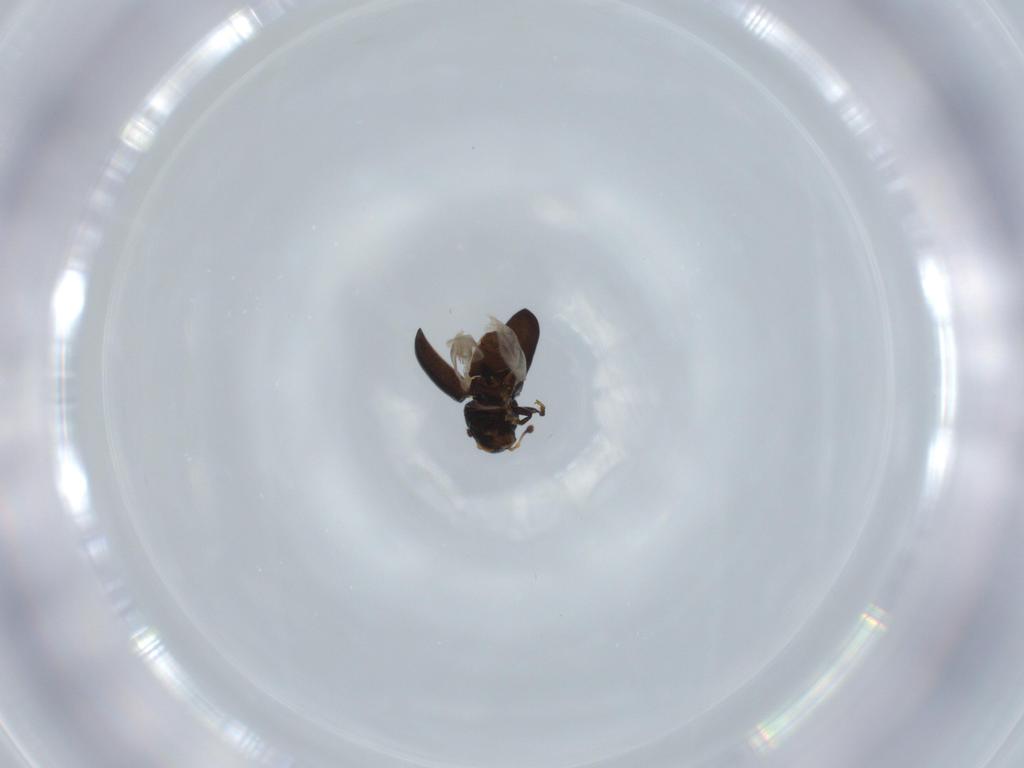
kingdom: Animalia
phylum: Arthropoda
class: Insecta
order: Coleoptera
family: Anthribidae
